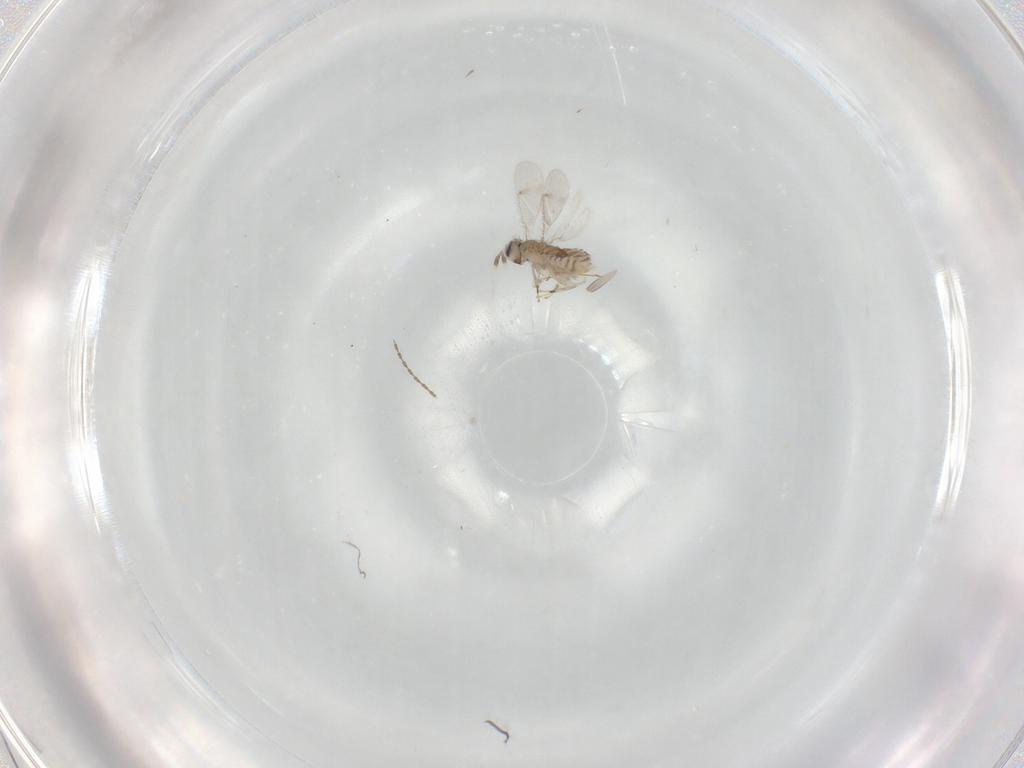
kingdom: Animalia
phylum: Arthropoda
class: Insecta
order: Hymenoptera
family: Aphelinidae
